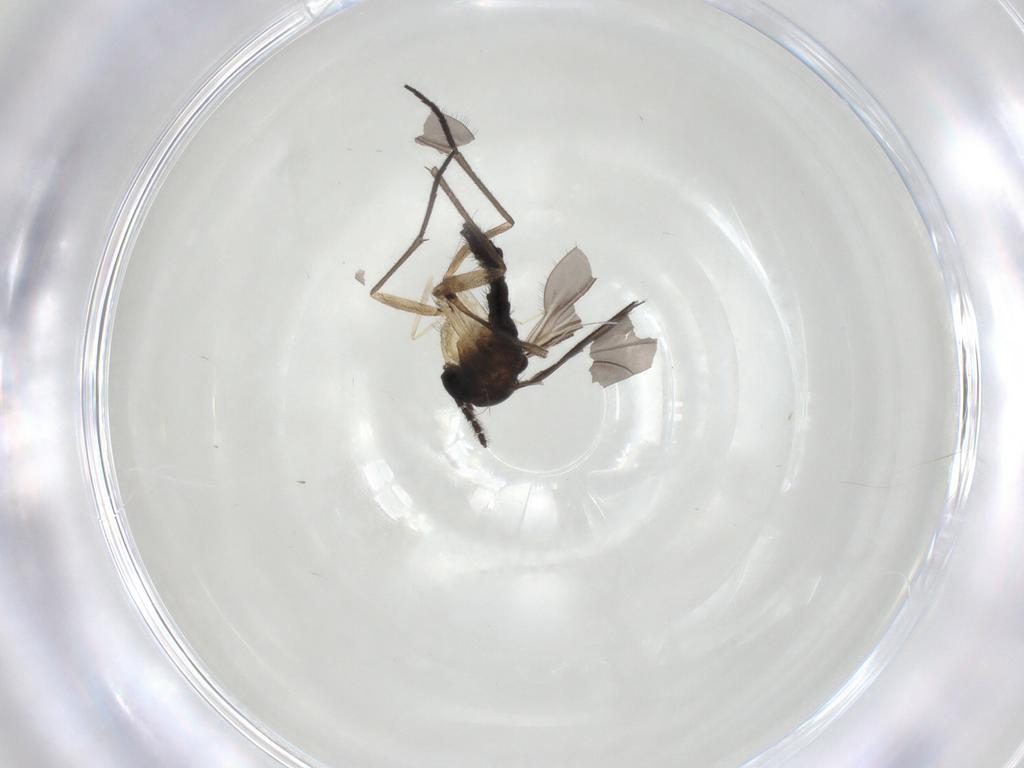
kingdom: Animalia
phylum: Arthropoda
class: Insecta
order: Diptera
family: Sciaridae
